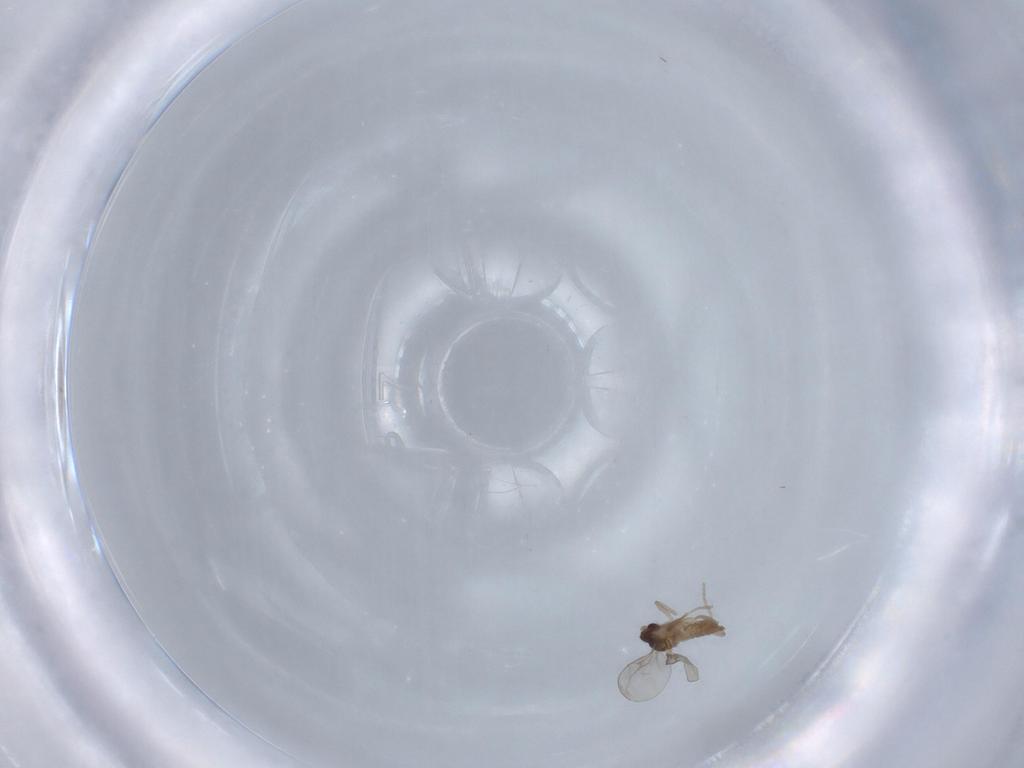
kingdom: Animalia
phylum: Arthropoda
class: Insecta
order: Diptera
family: Cecidomyiidae
